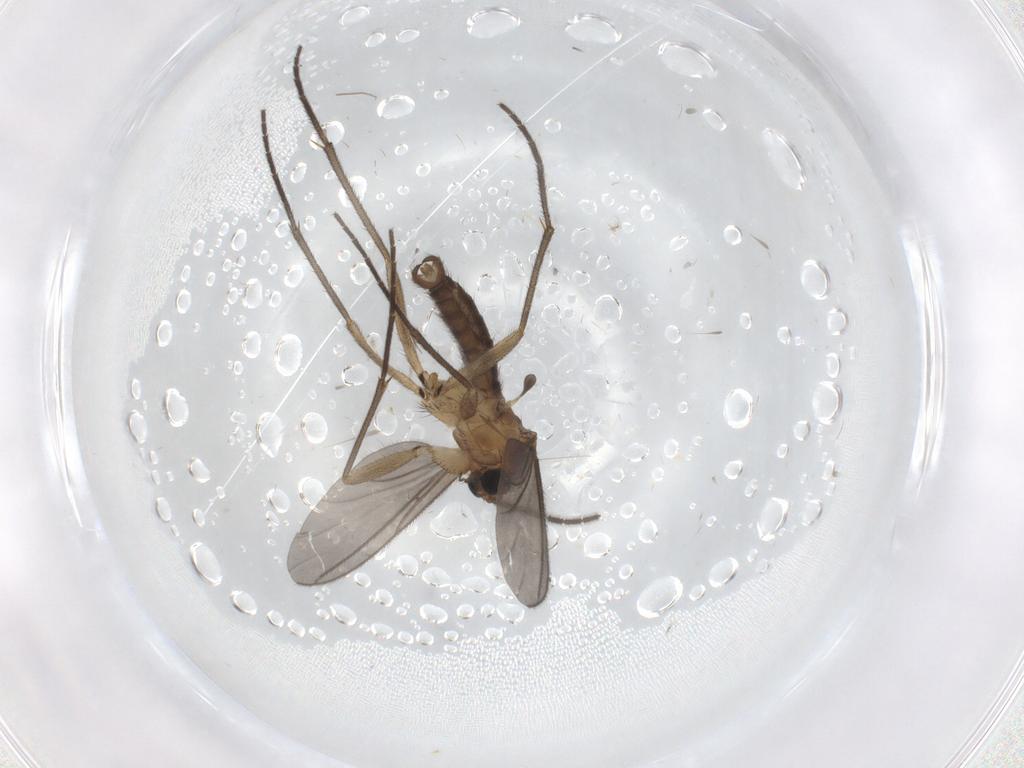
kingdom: Animalia
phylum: Arthropoda
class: Insecta
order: Diptera
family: Sciaridae
